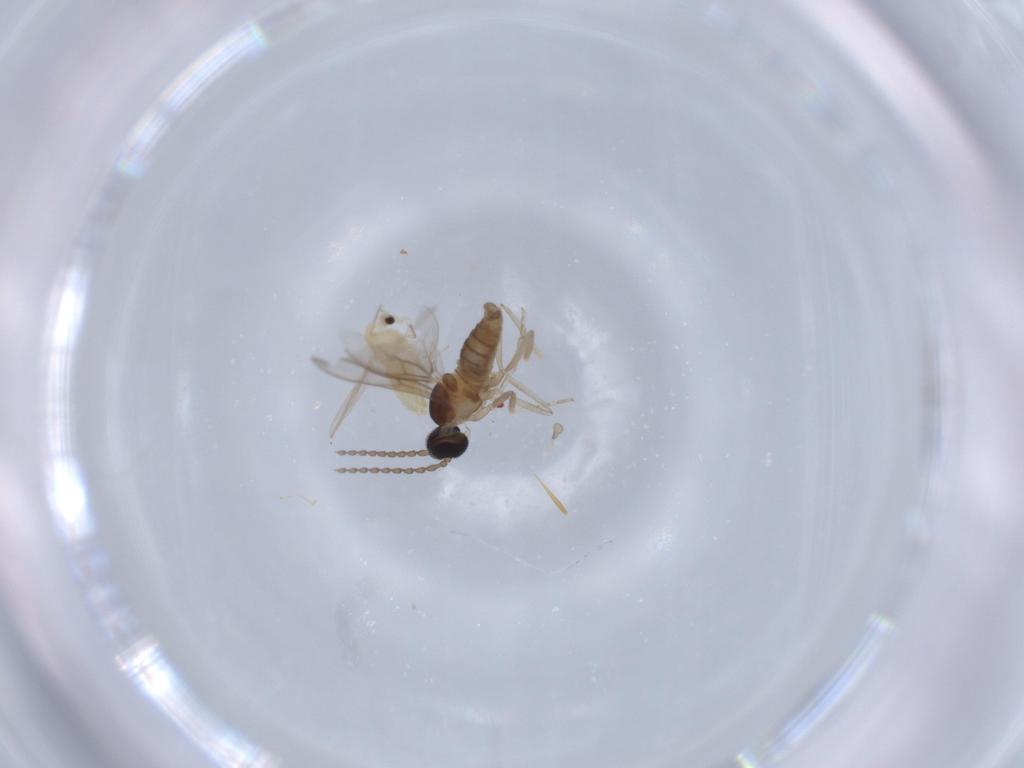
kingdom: Animalia
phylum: Arthropoda
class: Insecta
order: Diptera
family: Chironomidae
